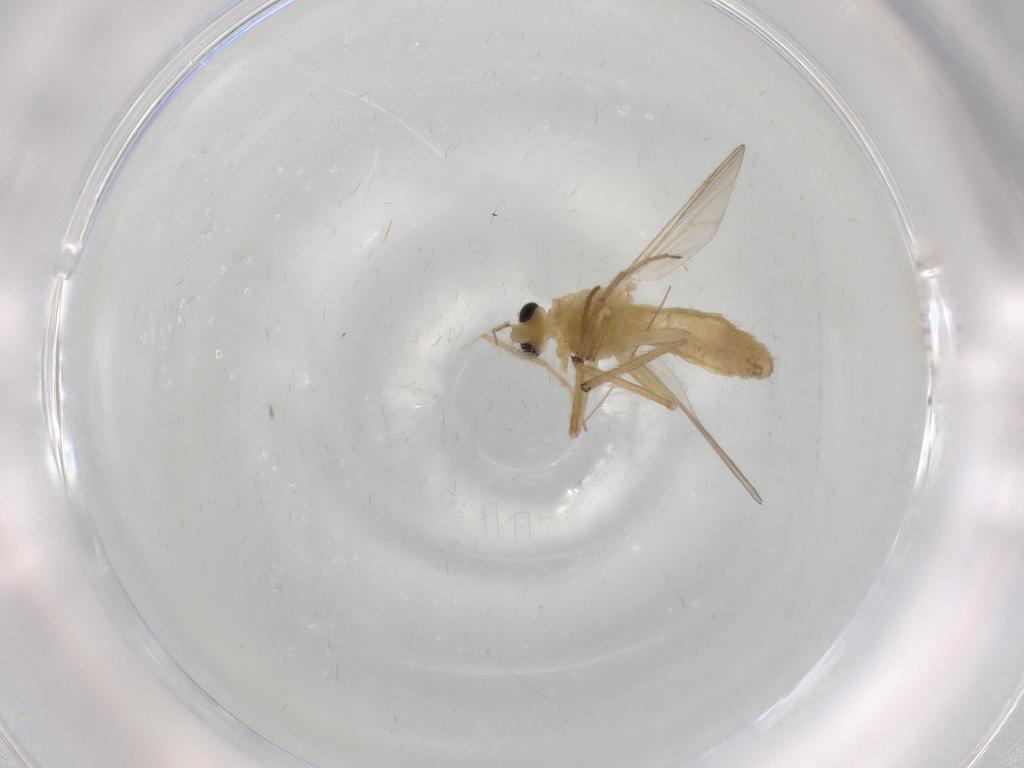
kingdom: Animalia
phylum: Arthropoda
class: Insecta
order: Diptera
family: Chironomidae
